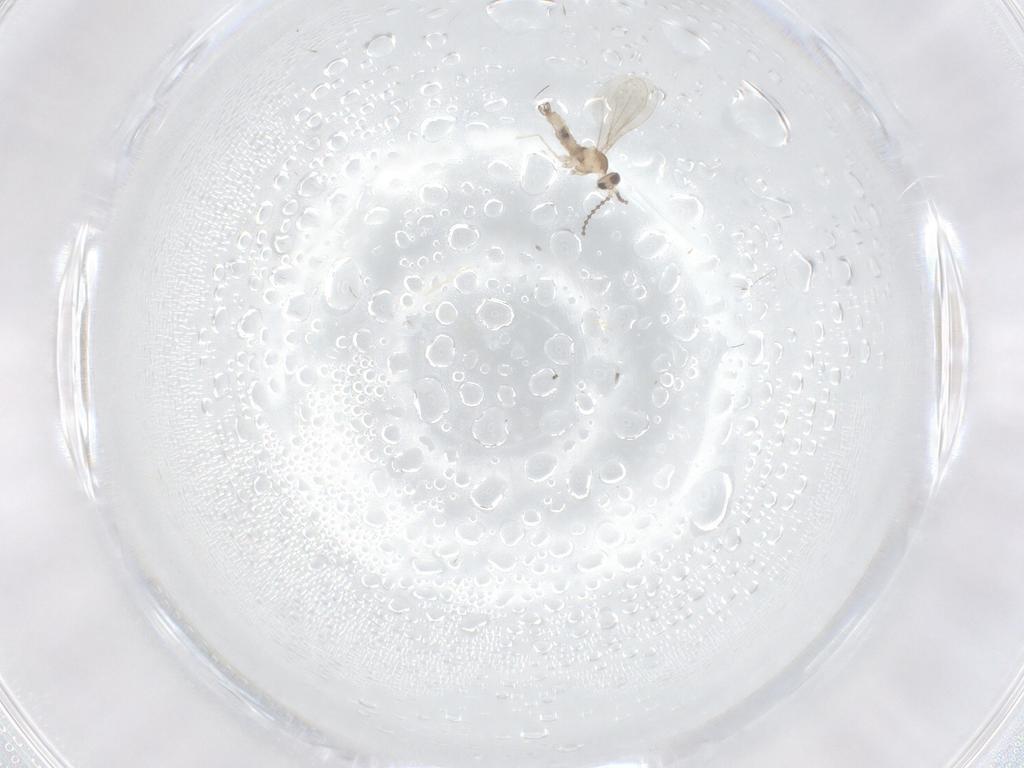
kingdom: Animalia
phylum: Arthropoda
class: Insecta
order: Diptera
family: Cecidomyiidae
